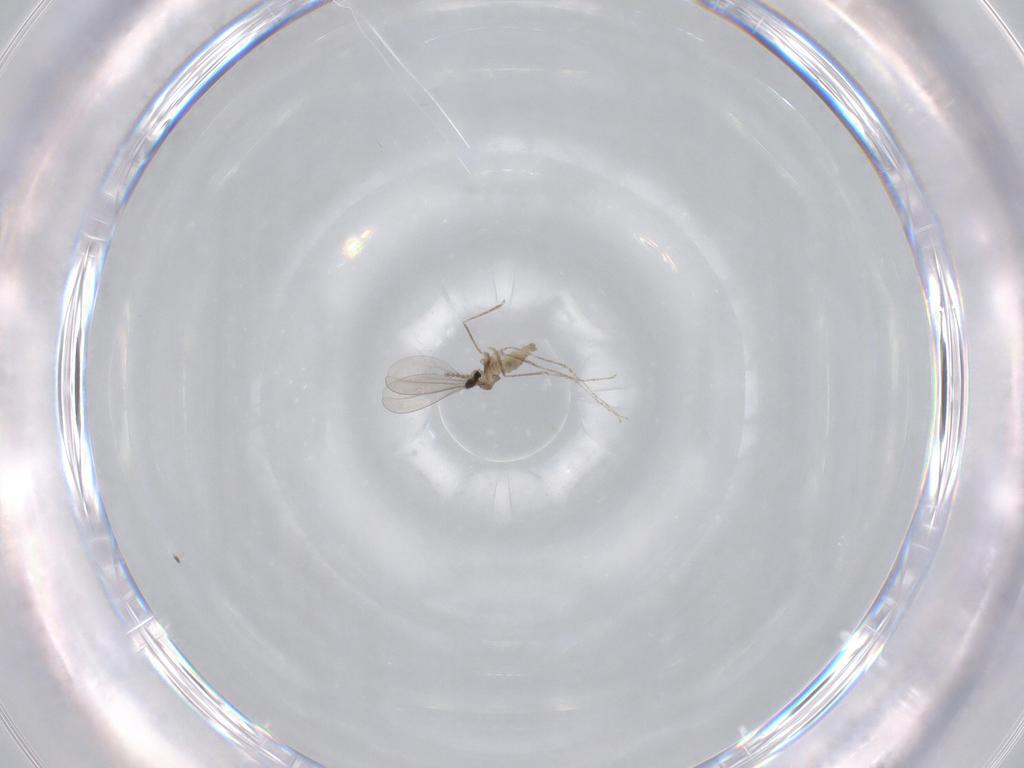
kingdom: Animalia
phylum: Arthropoda
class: Insecta
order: Diptera
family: Cecidomyiidae
